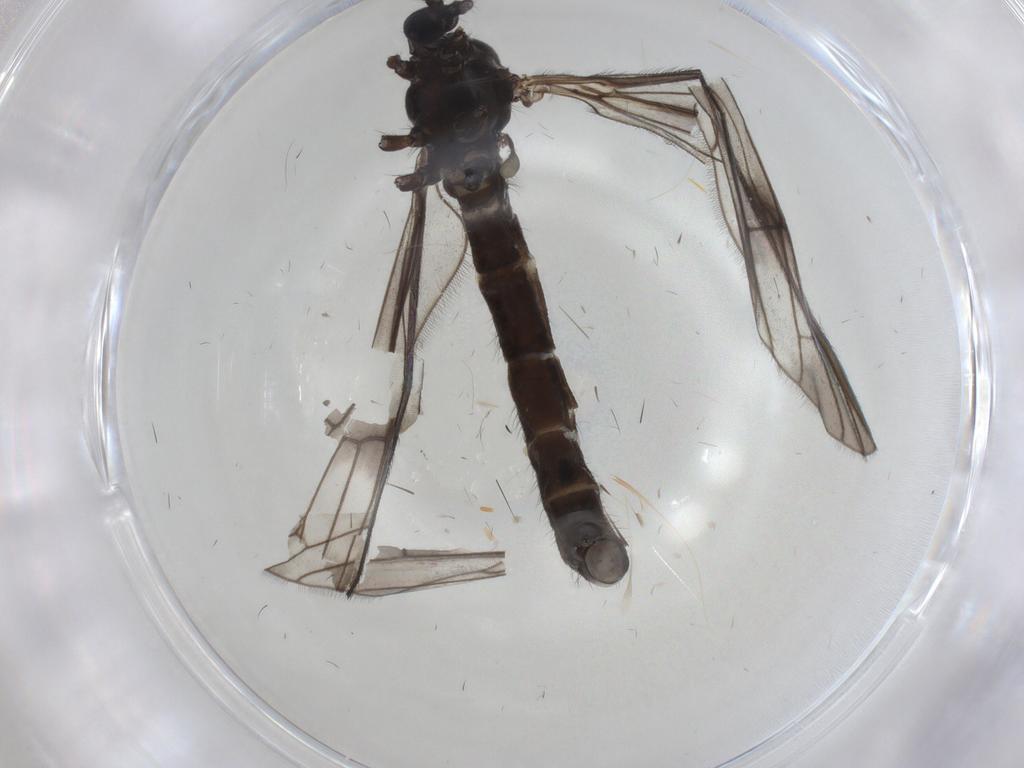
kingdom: Animalia
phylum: Arthropoda
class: Insecta
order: Diptera
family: Limoniidae
